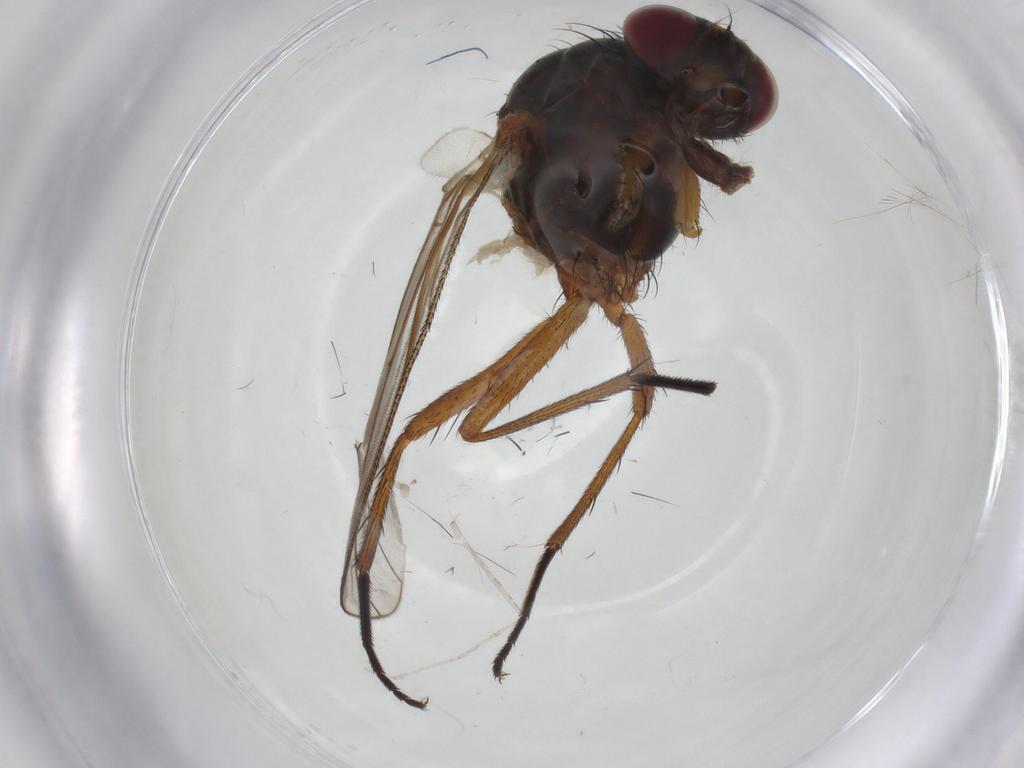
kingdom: Animalia
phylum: Arthropoda
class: Insecta
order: Diptera
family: Anthomyiidae
